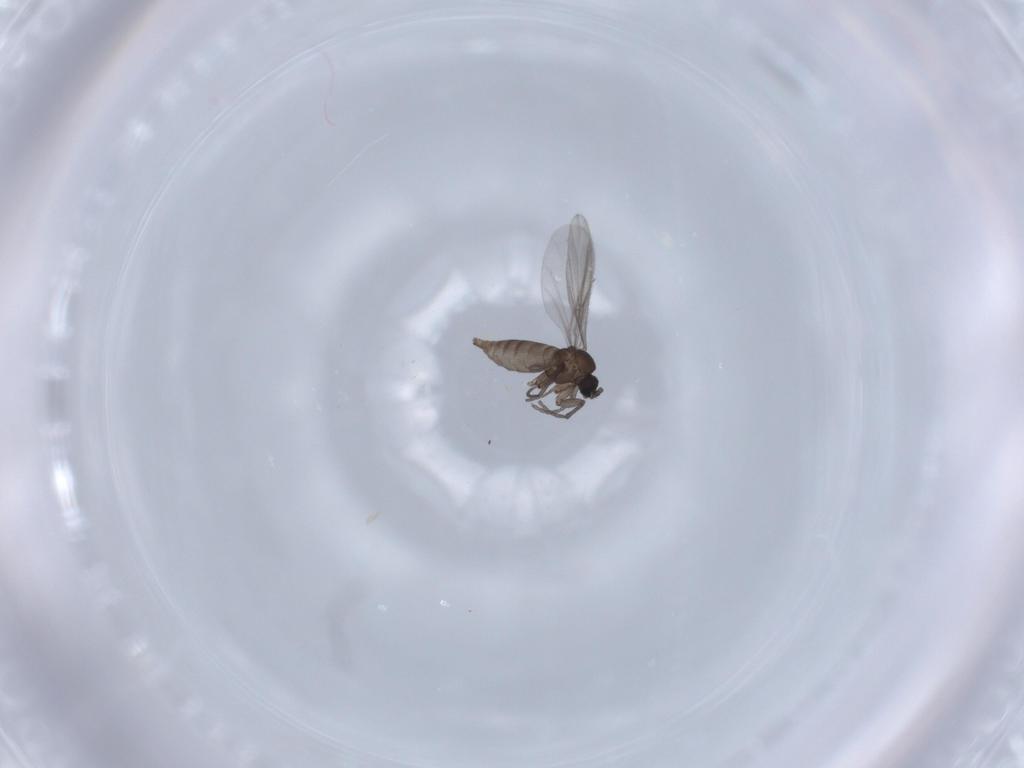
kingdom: Animalia
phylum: Arthropoda
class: Insecta
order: Diptera
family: Sciaridae
